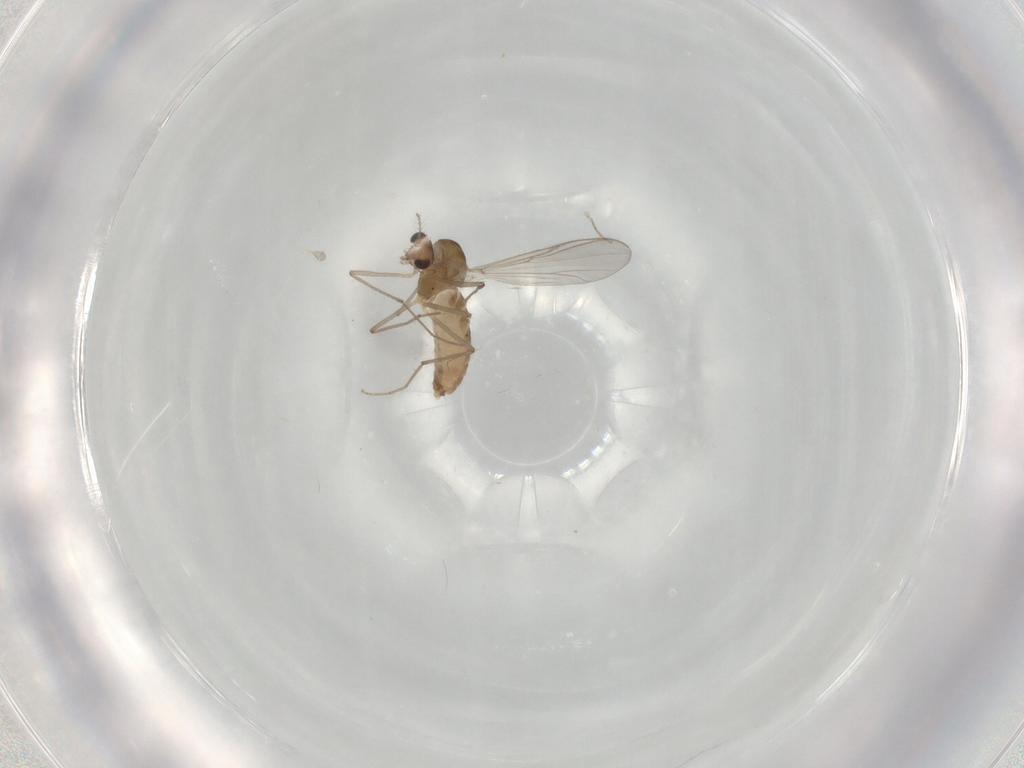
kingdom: Animalia
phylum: Arthropoda
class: Insecta
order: Diptera
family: Chironomidae
